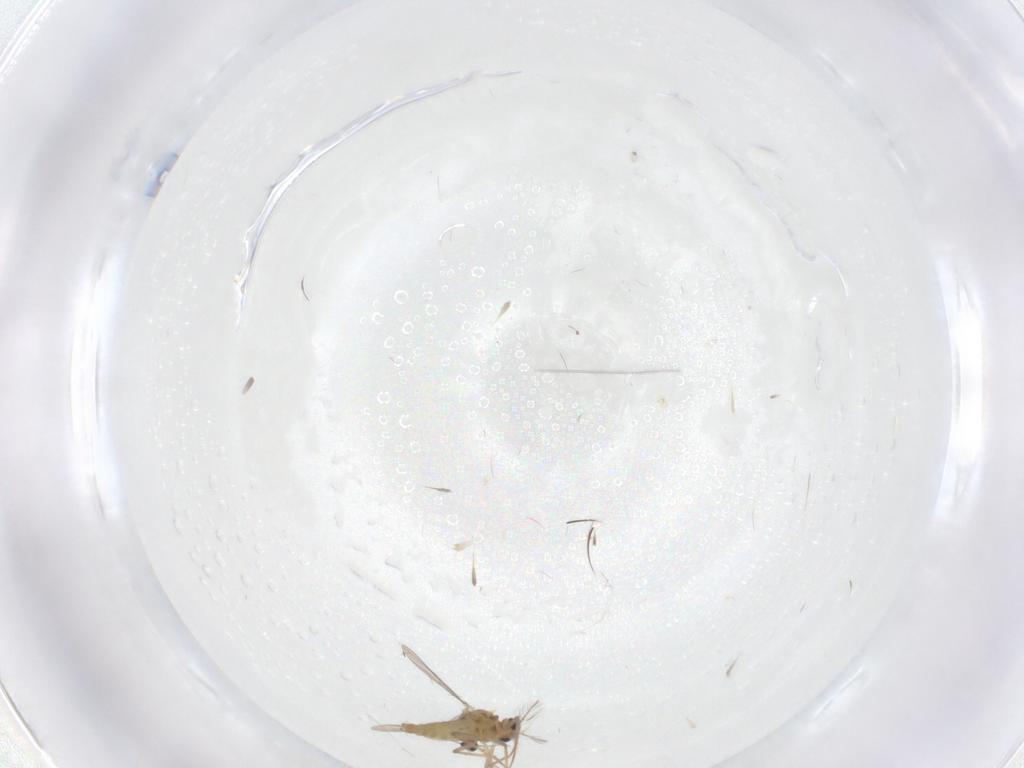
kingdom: Animalia
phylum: Arthropoda
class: Insecta
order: Diptera
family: Chironomidae
